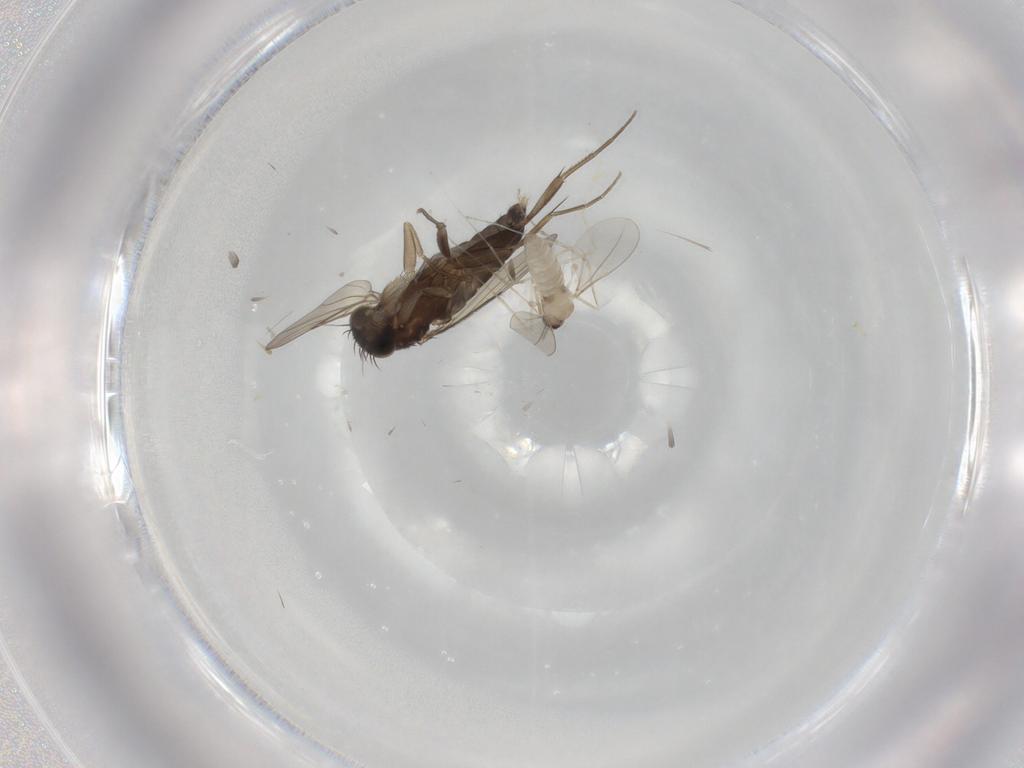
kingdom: Animalia
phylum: Arthropoda
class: Insecta
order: Diptera
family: Cecidomyiidae
